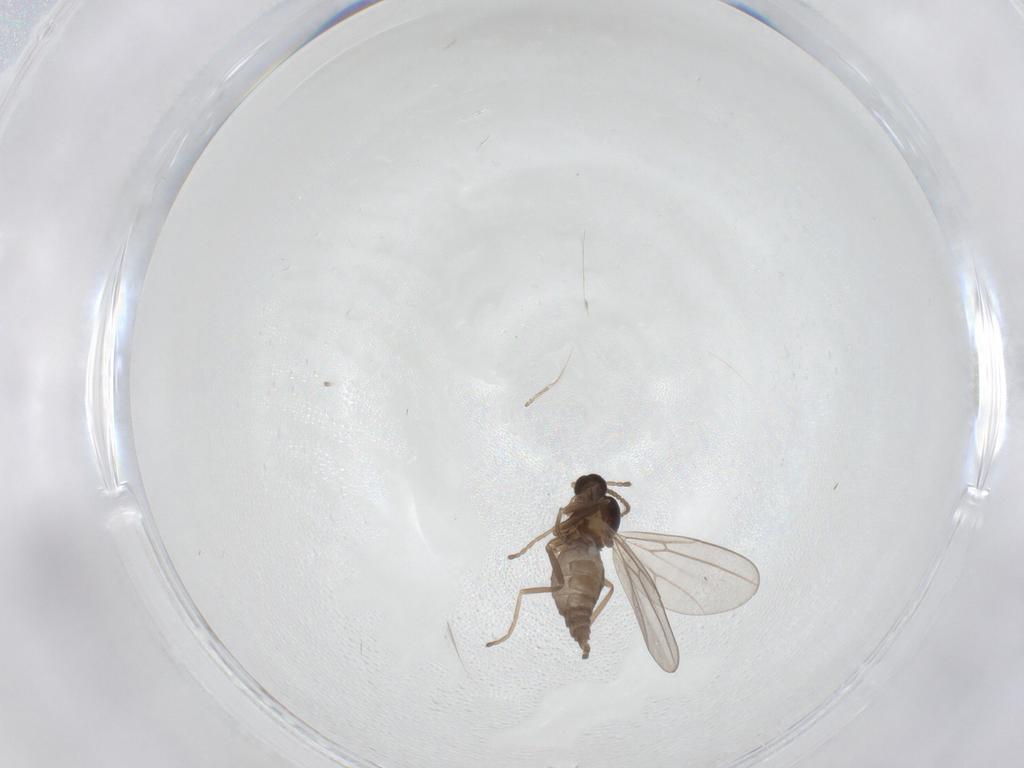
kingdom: Animalia
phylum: Arthropoda
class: Insecta
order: Diptera
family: Cecidomyiidae
